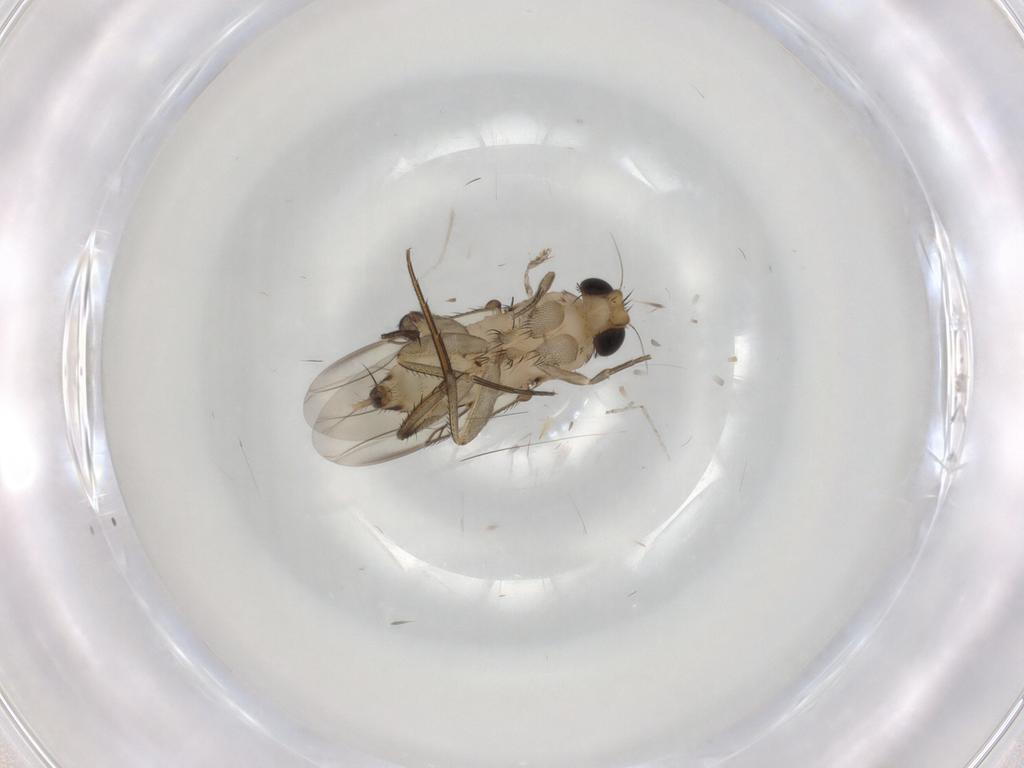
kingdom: Animalia
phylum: Arthropoda
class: Insecta
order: Diptera
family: Phoridae
